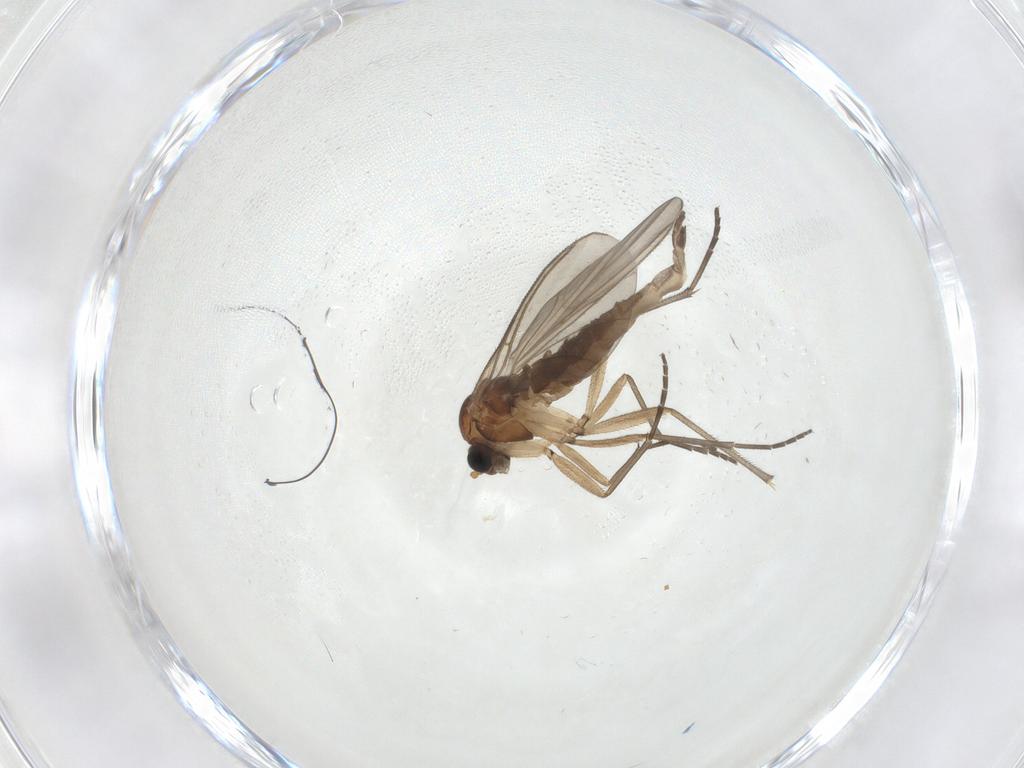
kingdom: Animalia
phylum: Arthropoda
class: Insecta
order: Diptera
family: Sciaridae
